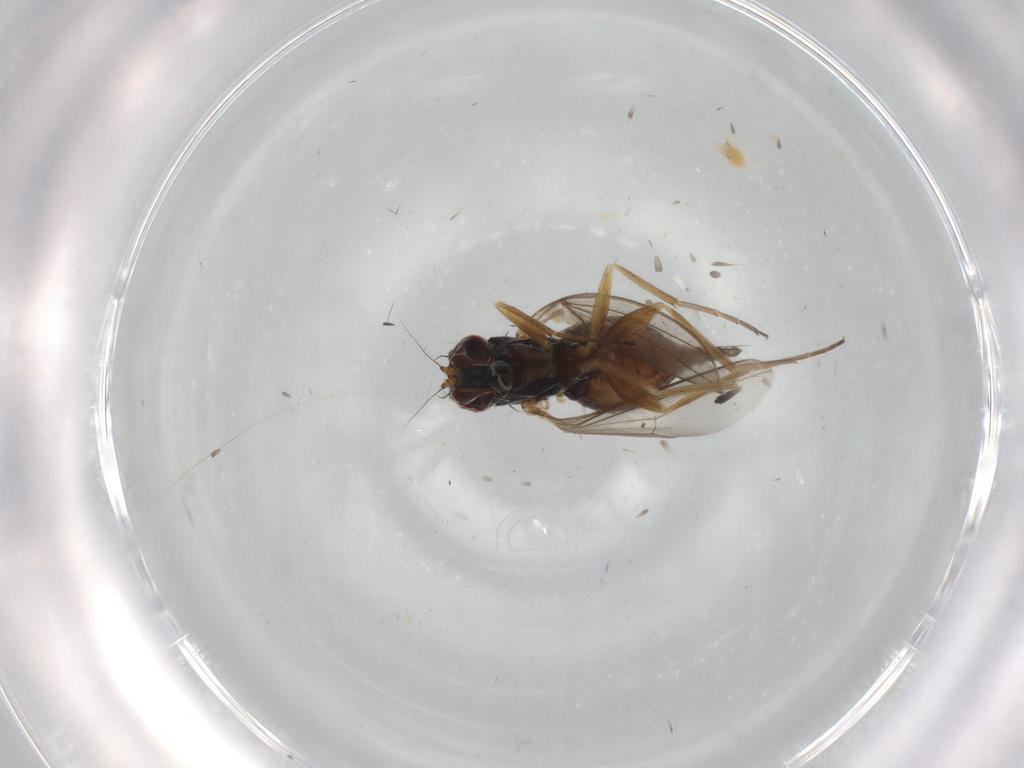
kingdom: Animalia
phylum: Arthropoda
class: Insecta
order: Diptera
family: Dolichopodidae
